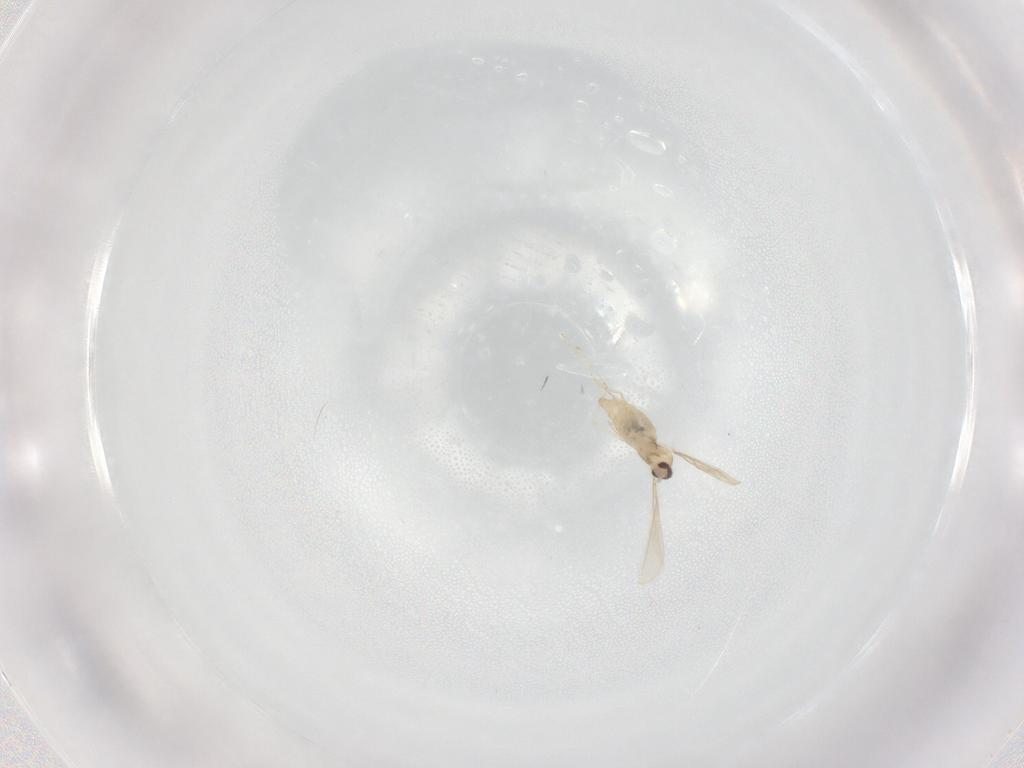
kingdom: Animalia
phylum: Arthropoda
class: Insecta
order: Diptera
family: Cecidomyiidae
